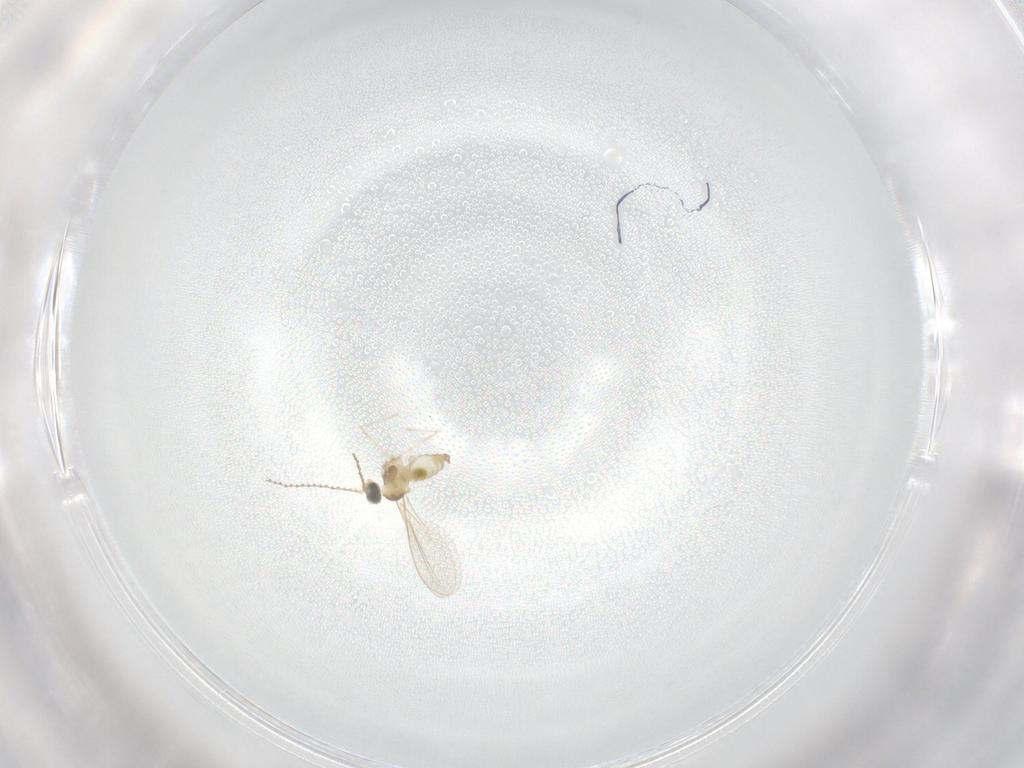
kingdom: Animalia
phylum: Arthropoda
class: Insecta
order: Diptera
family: Cecidomyiidae
